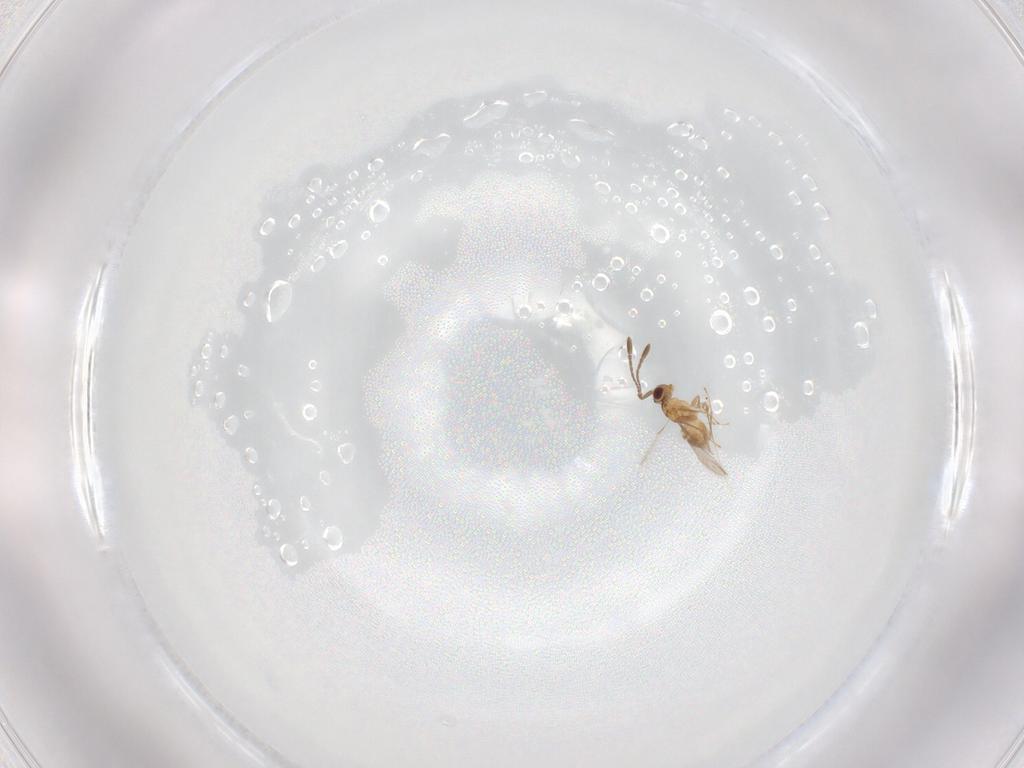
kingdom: Animalia
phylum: Arthropoda
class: Insecta
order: Hymenoptera
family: Mymaridae
